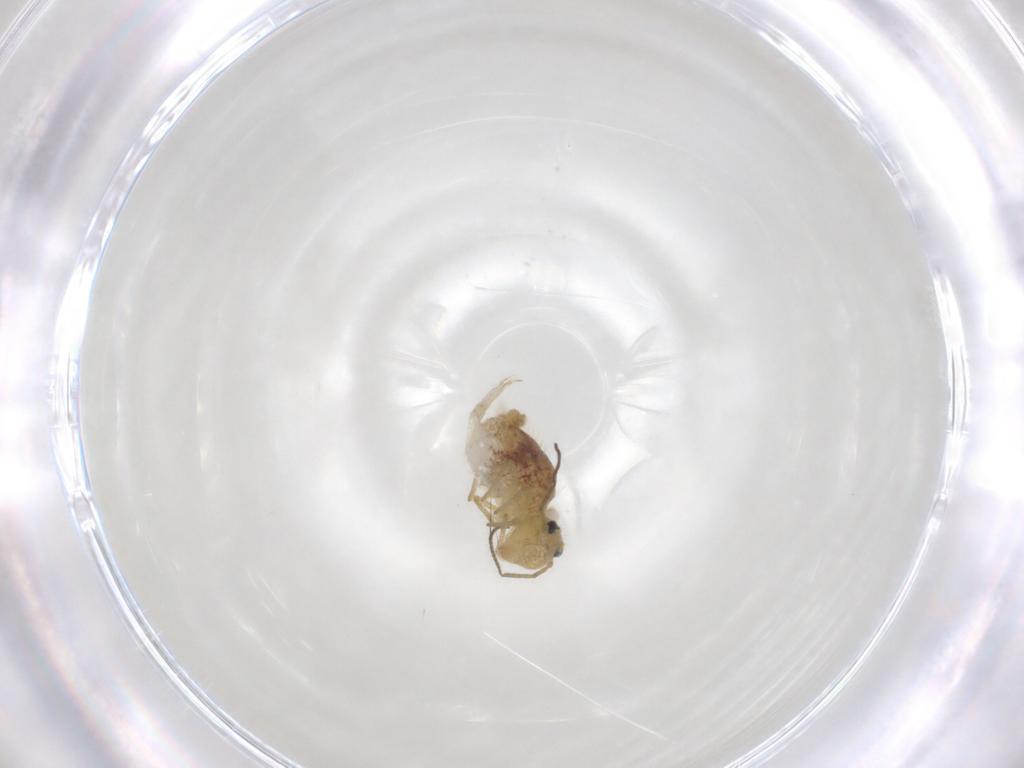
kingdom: Animalia
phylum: Arthropoda
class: Collembola
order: Symphypleona
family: Sminthuridae
